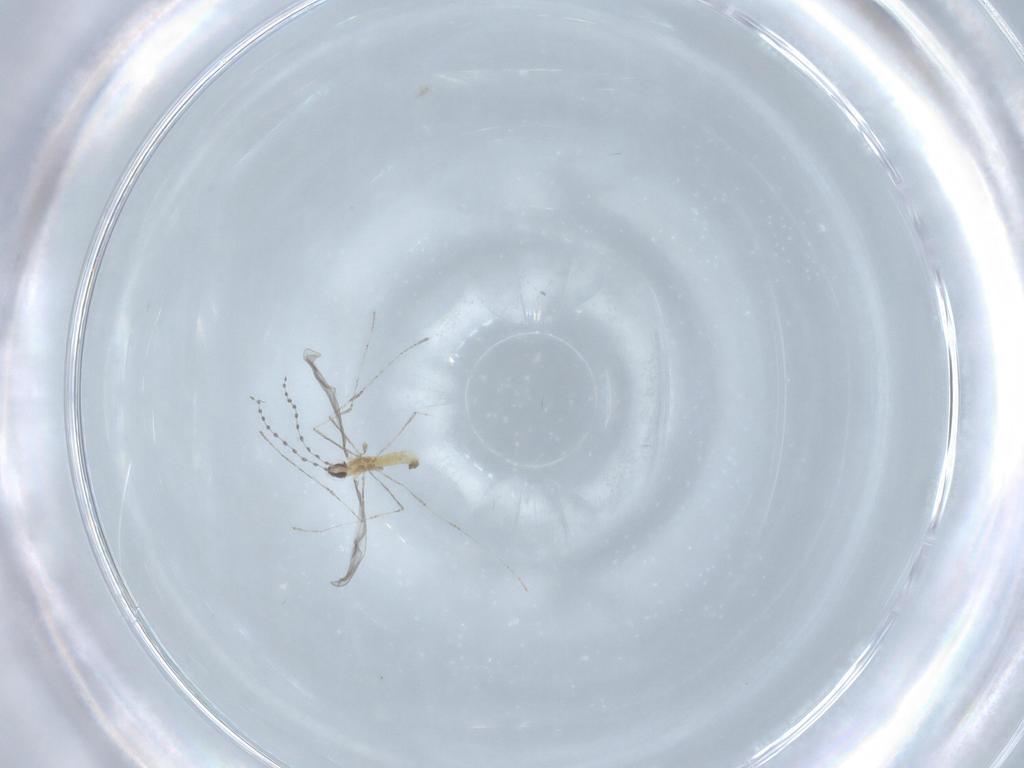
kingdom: Animalia
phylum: Arthropoda
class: Insecta
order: Diptera
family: Cecidomyiidae
